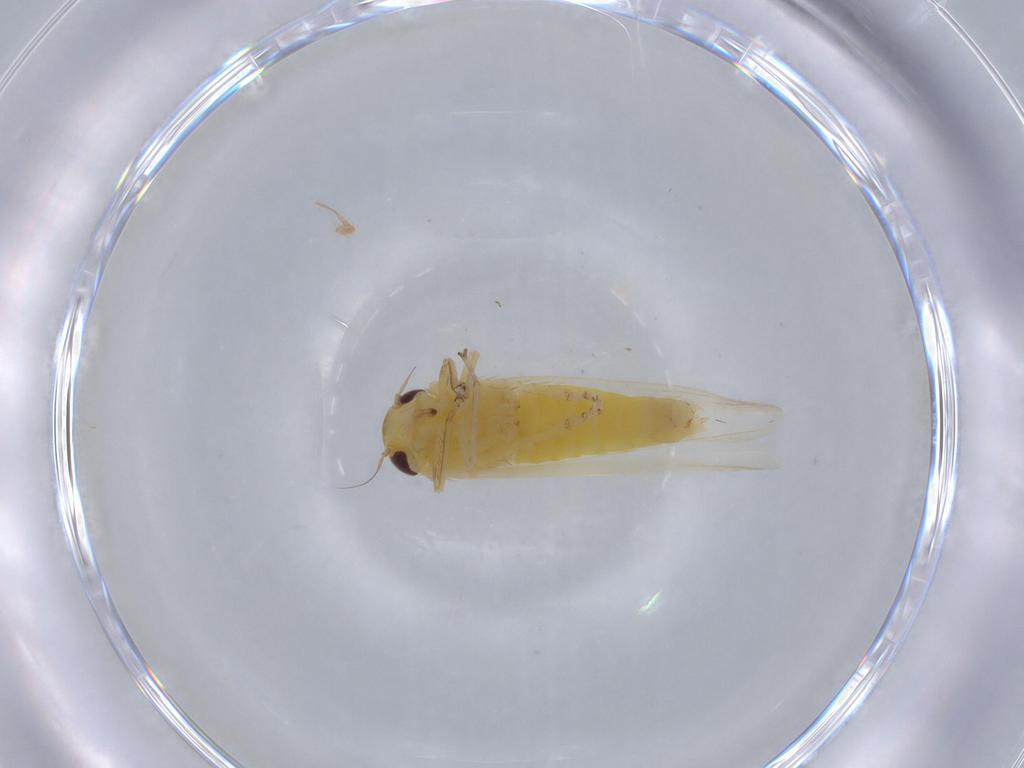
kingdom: Animalia
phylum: Arthropoda
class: Insecta
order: Hemiptera
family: Cicadellidae
